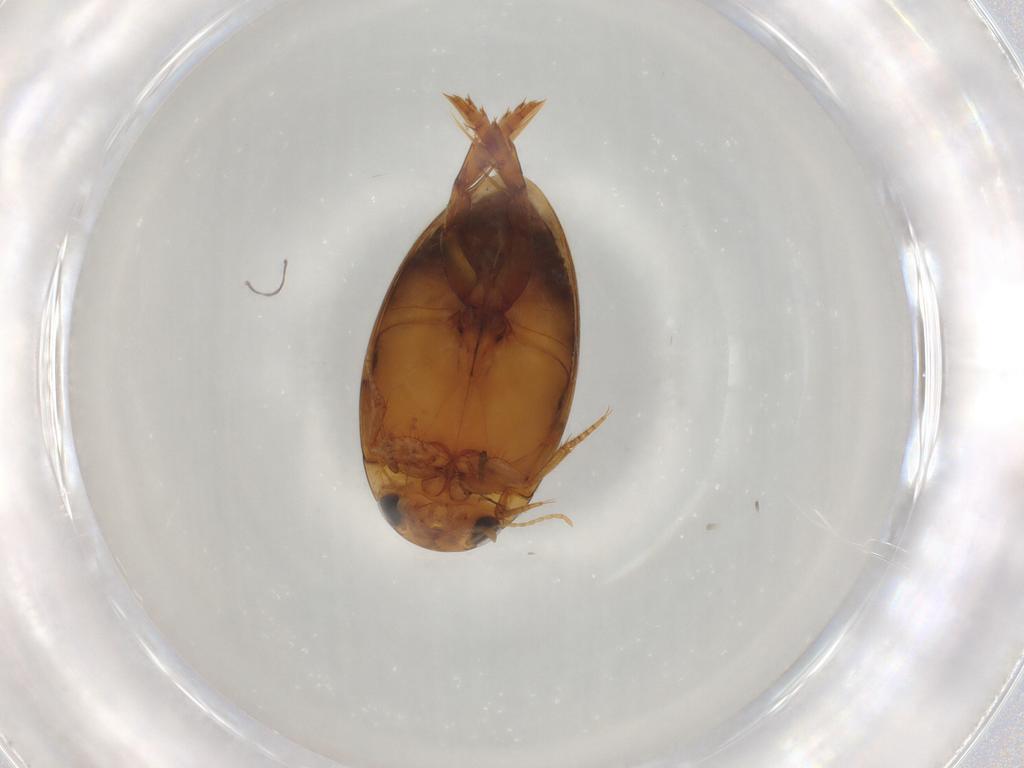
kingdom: Animalia
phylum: Arthropoda
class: Insecta
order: Coleoptera
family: Dytiscidae
